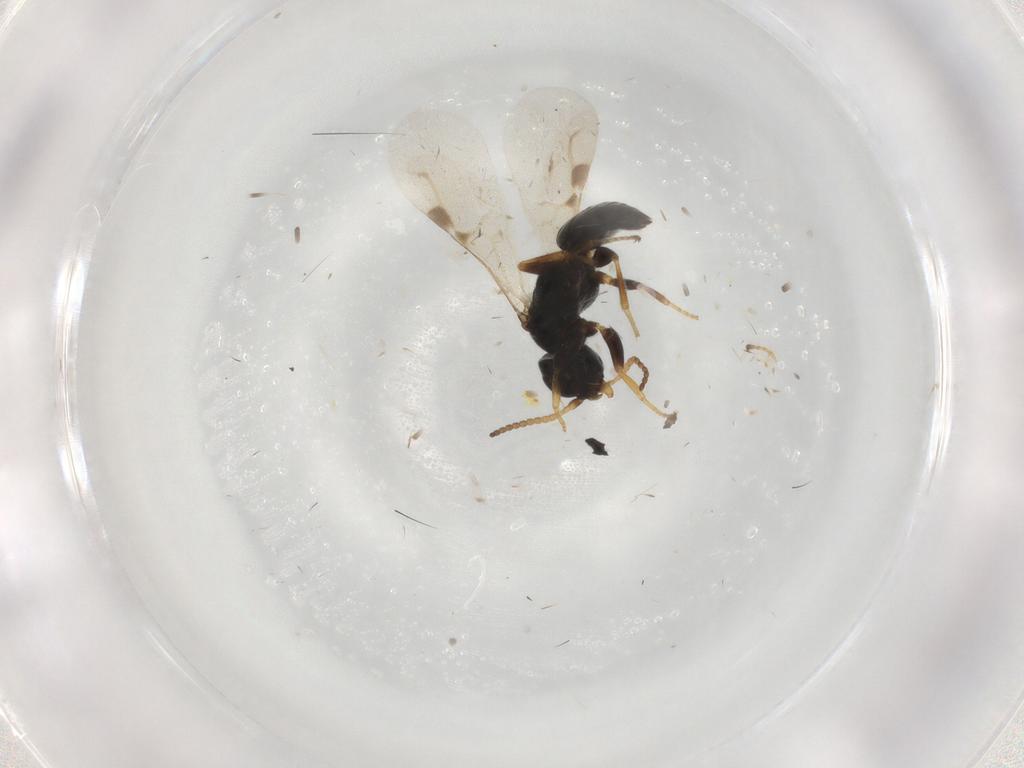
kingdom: Animalia
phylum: Arthropoda
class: Insecta
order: Hymenoptera
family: Bethylidae
